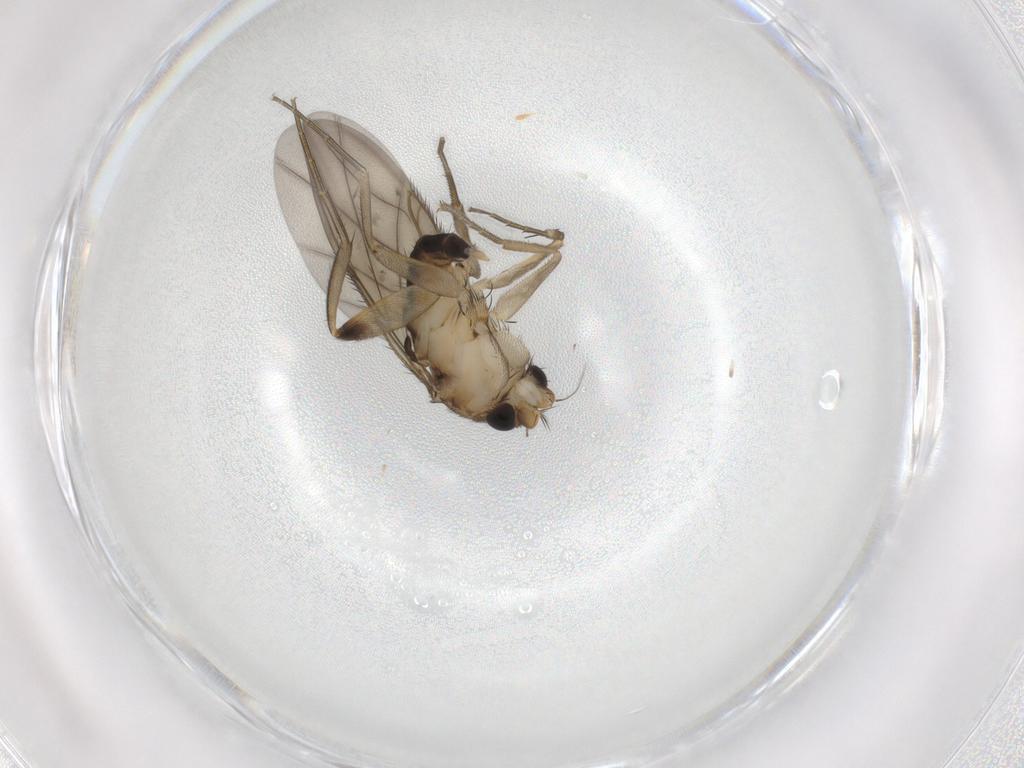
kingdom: Animalia
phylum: Arthropoda
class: Insecta
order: Diptera
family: Phoridae
